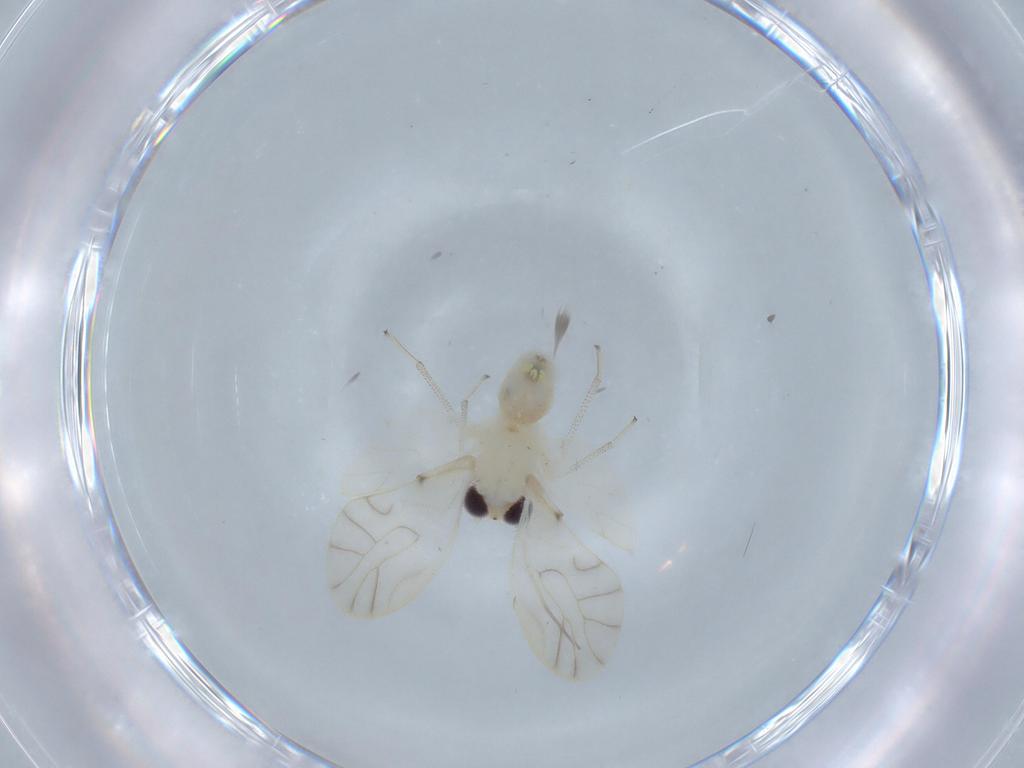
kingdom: Animalia
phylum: Arthropoda
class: Insecta
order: Psocodea
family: Caeciliusidae
